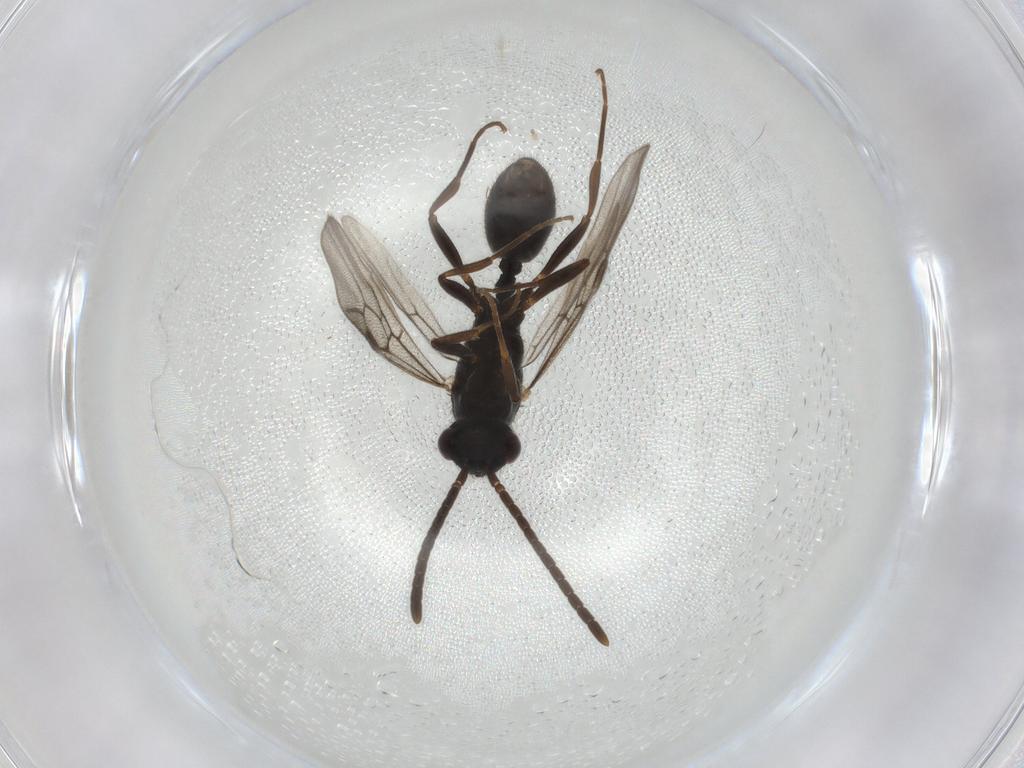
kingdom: Animalia
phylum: Arthropoda
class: Insecta
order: Hymenoptera
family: Formicidae
